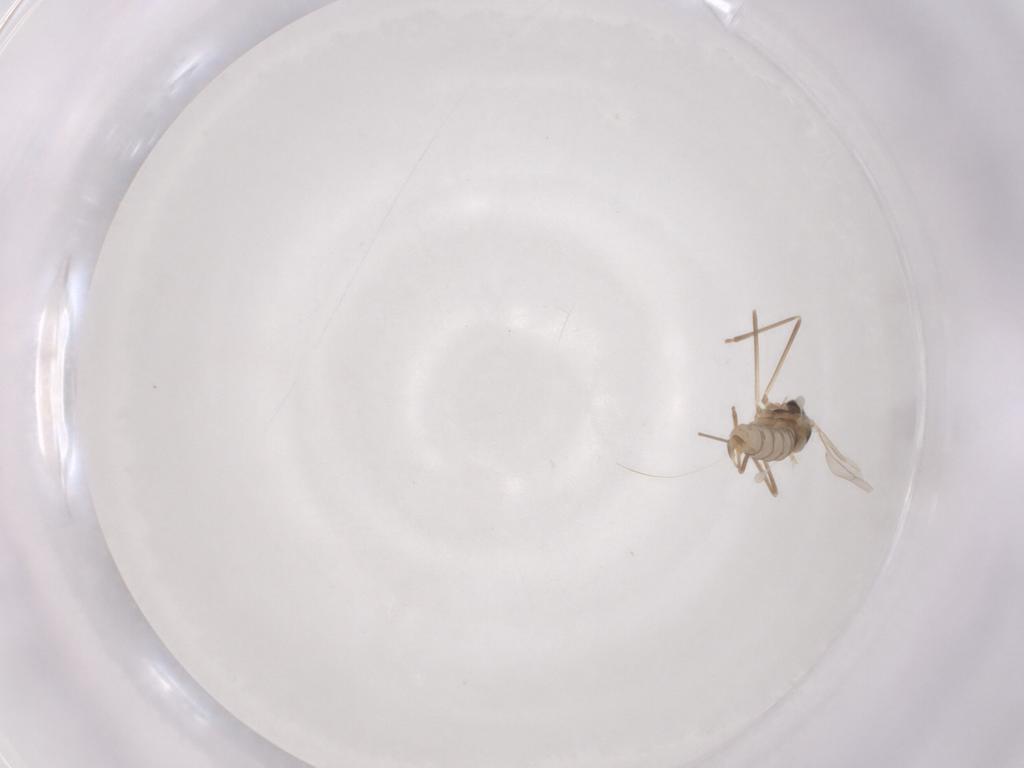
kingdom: Animalia
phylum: Arthropoda
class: Insecta
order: Diptera
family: Cecidomyiidae
